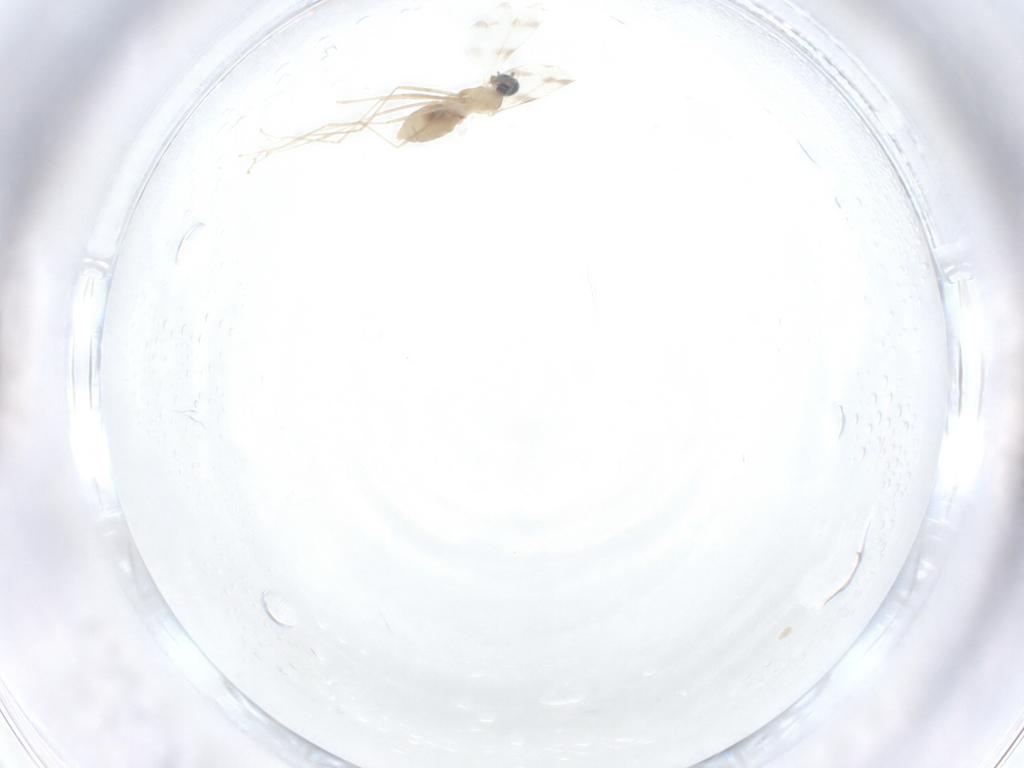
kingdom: Animalia
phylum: Arthropoda
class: Insecta
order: Diptera
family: Cecidomyiidae
